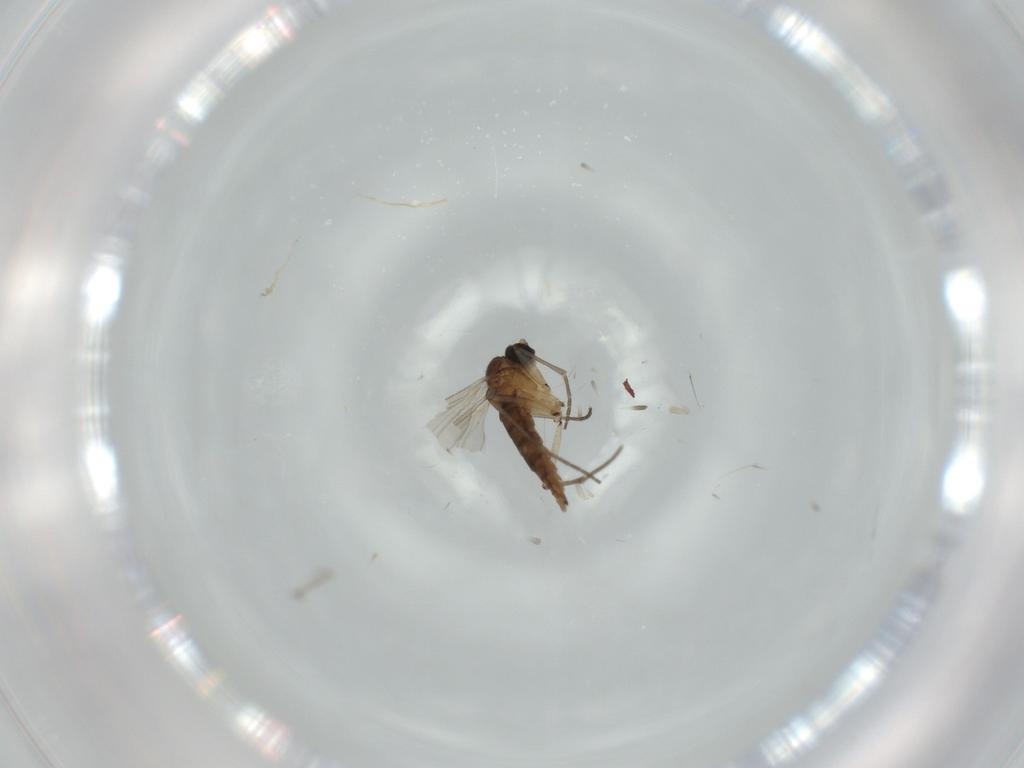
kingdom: Animalia
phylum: Arthropoda
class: Insecta
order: Diptera
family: Sciaridae
